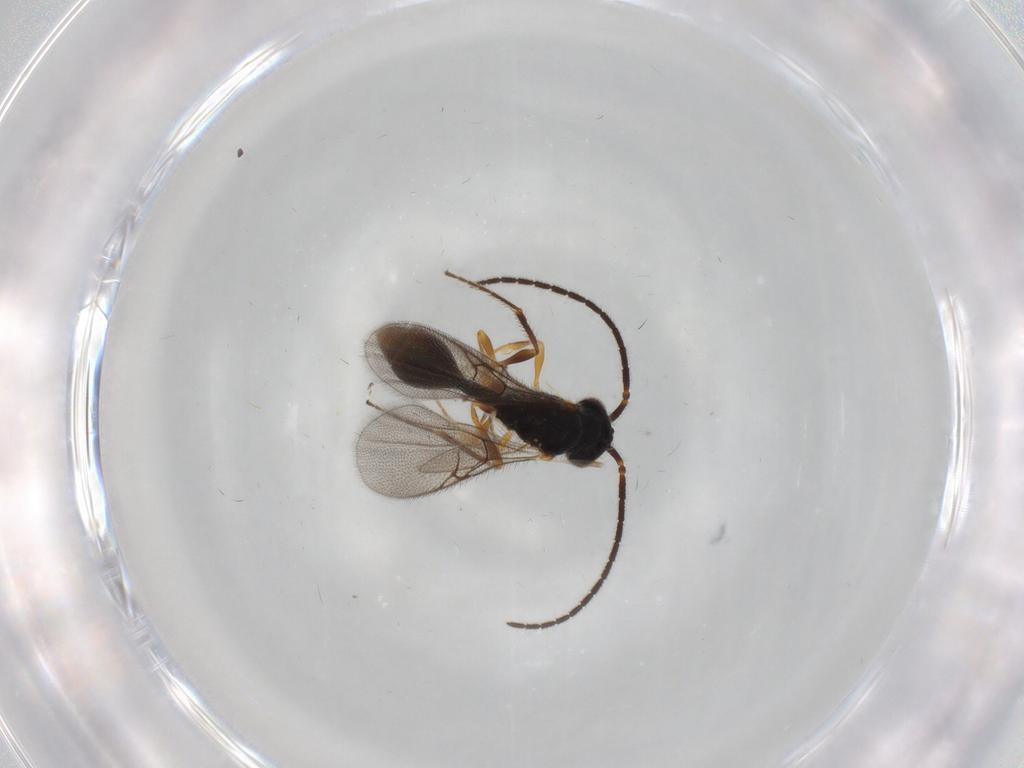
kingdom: Animalia
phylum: Arthropoda
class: Insecta
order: Hymenoptera
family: Diapriidae
